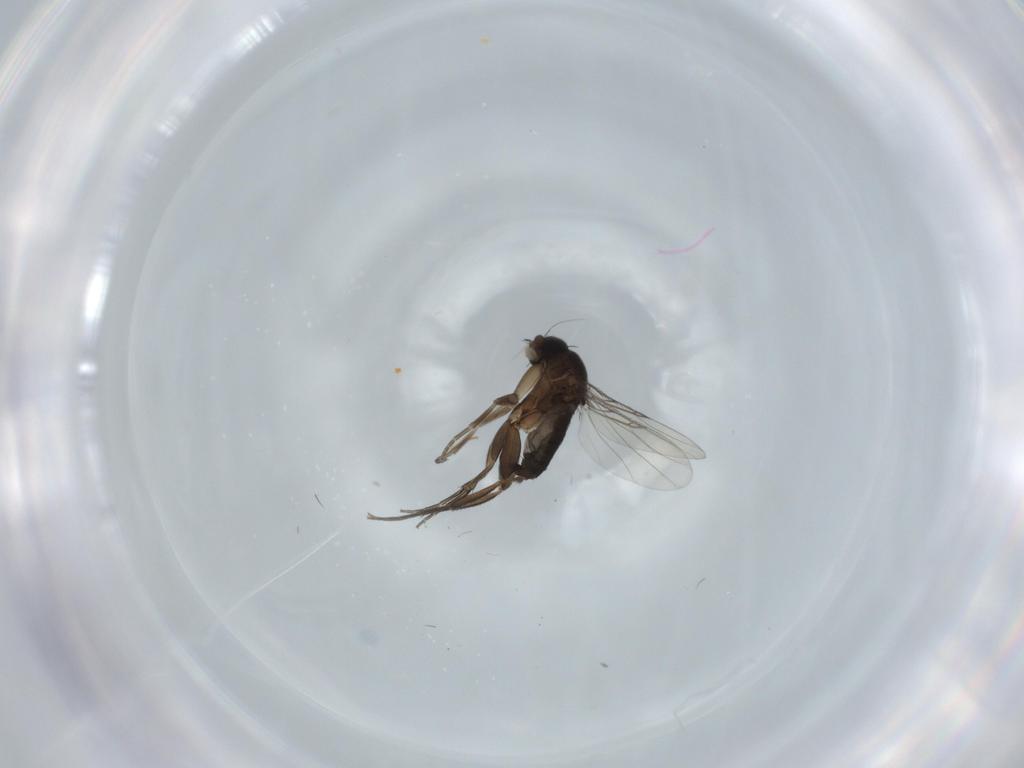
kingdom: Animalia
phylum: Arthropoda
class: Insecta
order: Diptera
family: Phoridae
